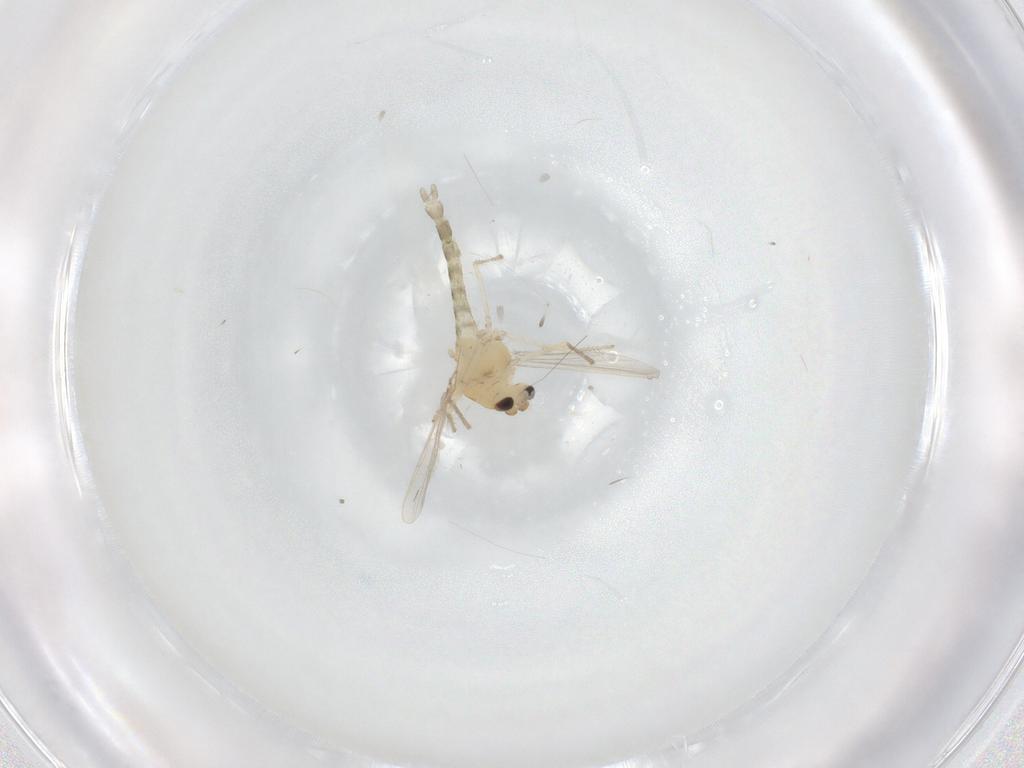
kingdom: Animalia
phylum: Arthropoda
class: Insecta
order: Diptera
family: Chironomidae
